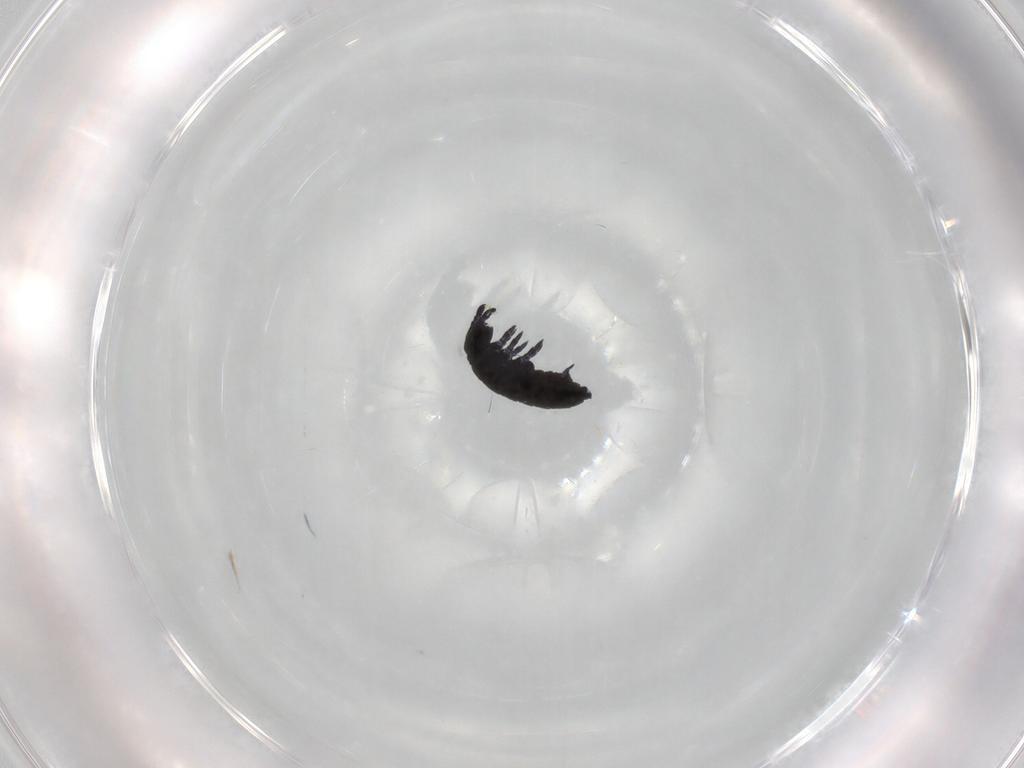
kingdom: Animalia
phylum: Arthropoda
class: Collembola
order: Poduromorpha
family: Hypogastruridae
